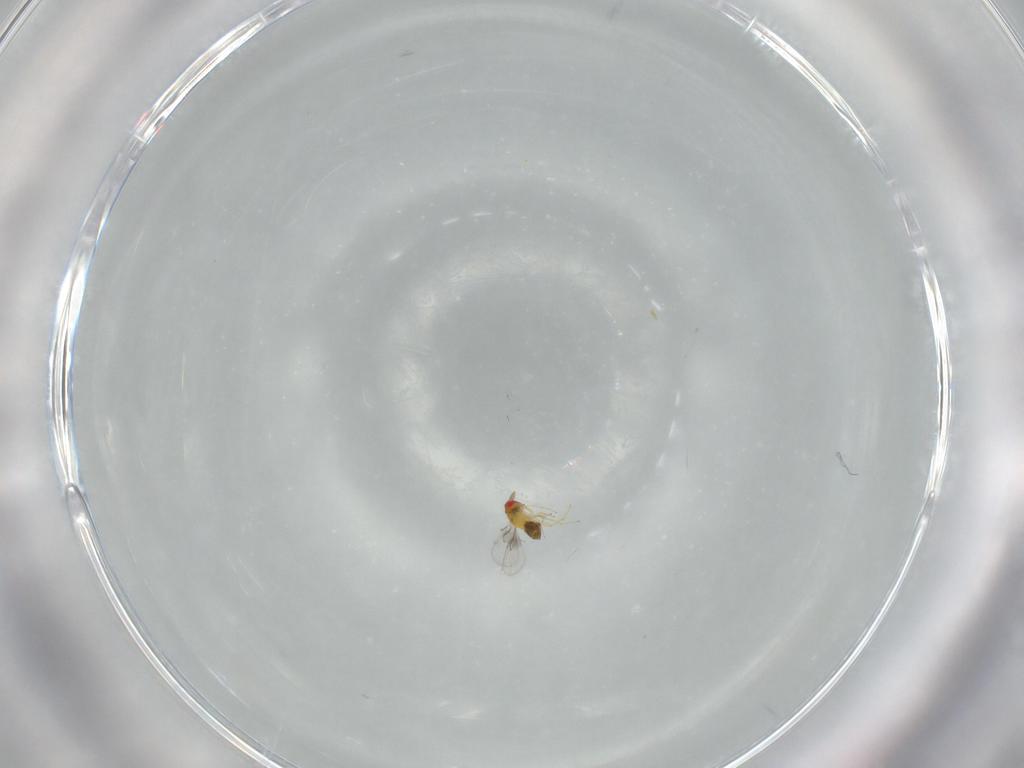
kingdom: Animalia
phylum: Arthropoda
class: Insecta
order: Hymenoptera
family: Trichogrammatidae
